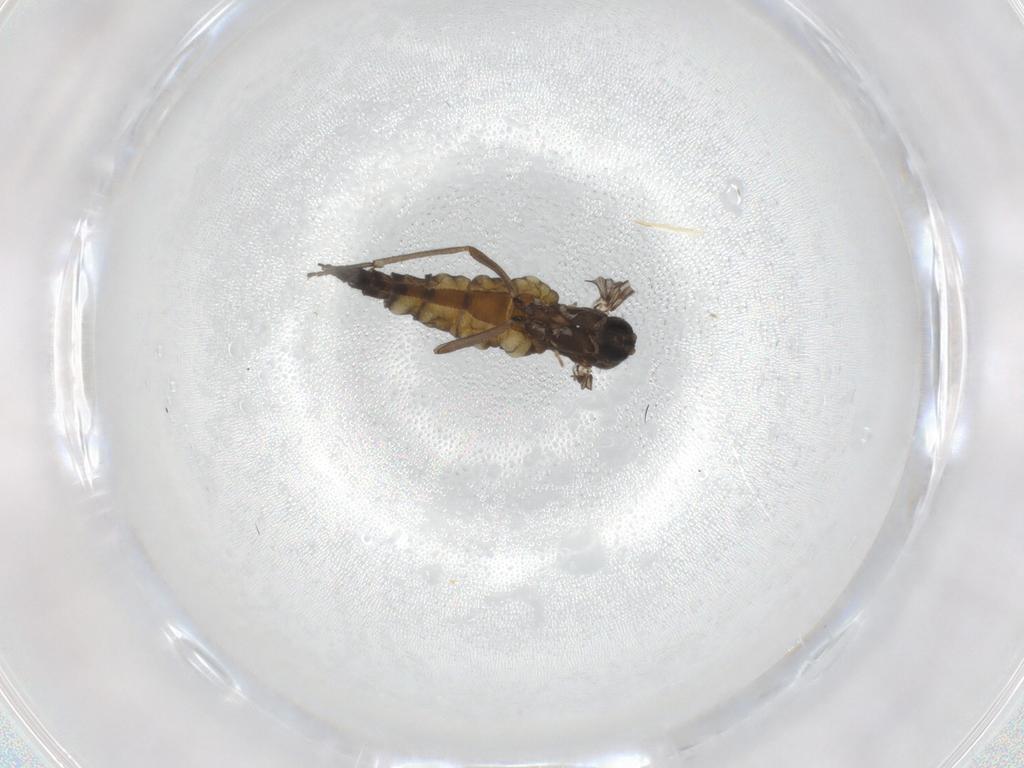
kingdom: Animalia
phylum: Arthropoda
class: Insecta
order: Diptera
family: Sciaridae
